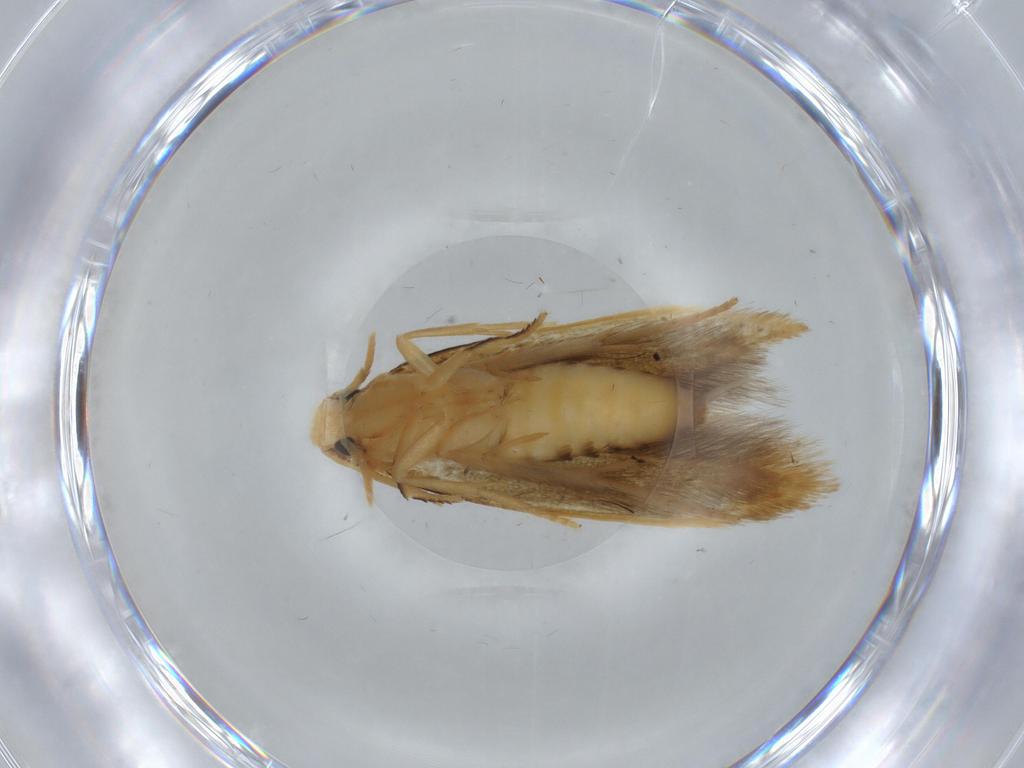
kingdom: Animalia
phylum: Arthropoda
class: Insecta
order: Lepidoptera
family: Tineidae
